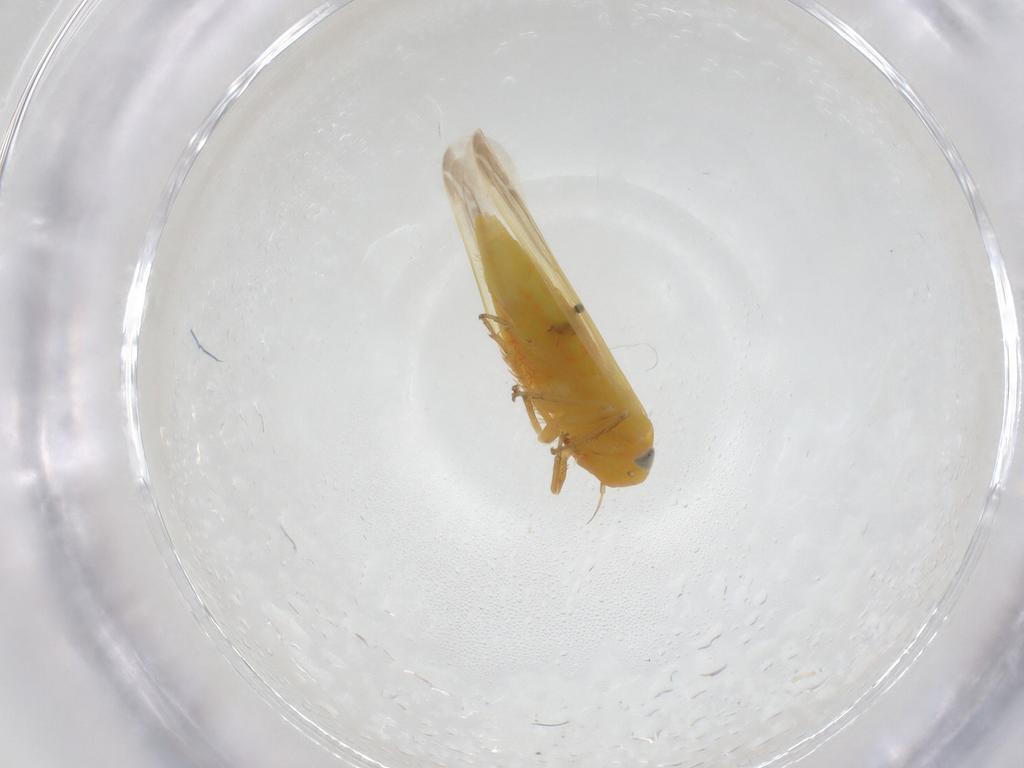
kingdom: Animalia
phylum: Arthropoda
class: Insecta
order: Hemiptera
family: Cicadellidae
